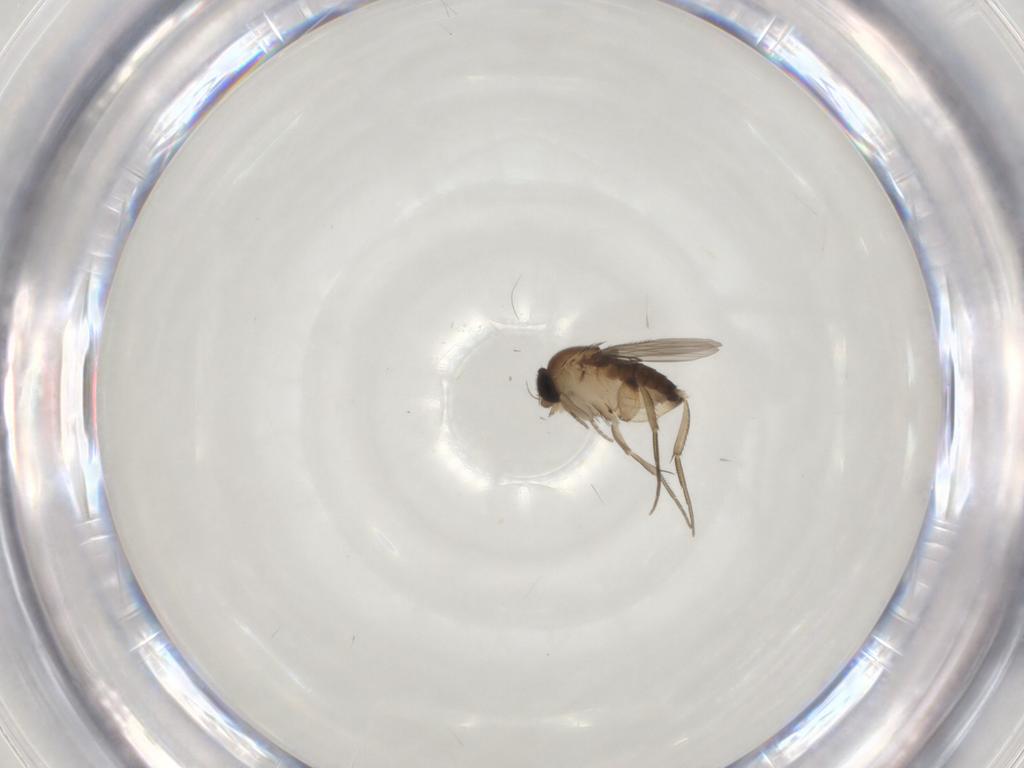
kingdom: Animalia
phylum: Arthropoda
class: Insecta
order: Diptera
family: Phoridae
